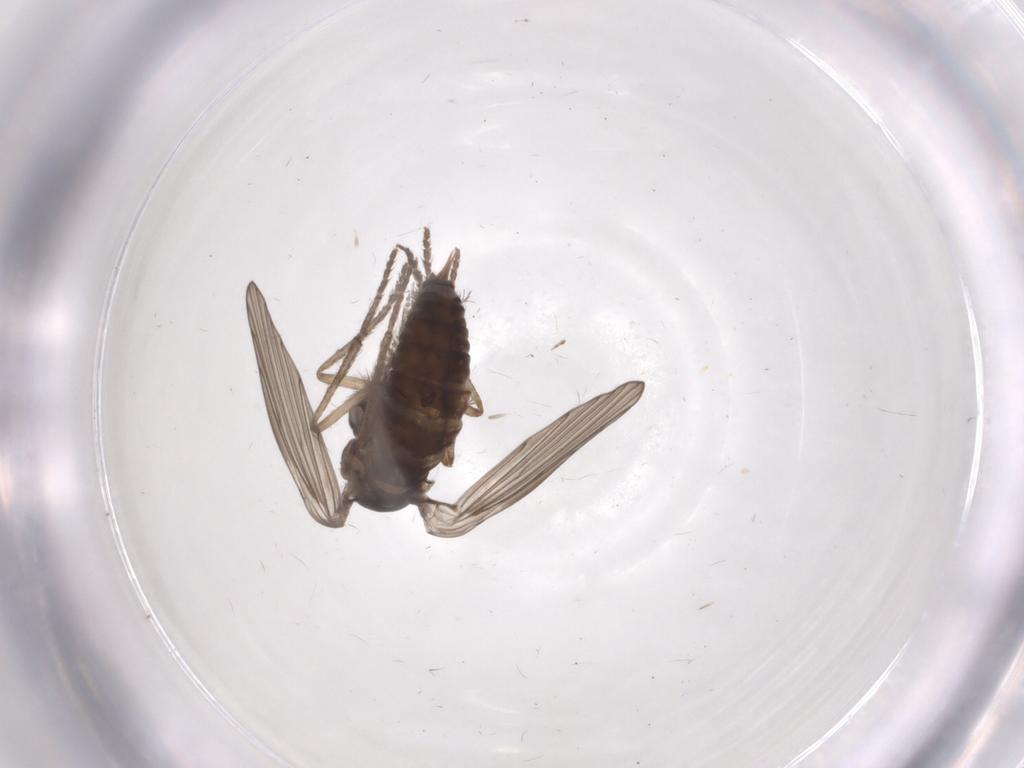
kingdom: Animalia
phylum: Arthropoda
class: Insecta
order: Diptera
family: Psychodidae
